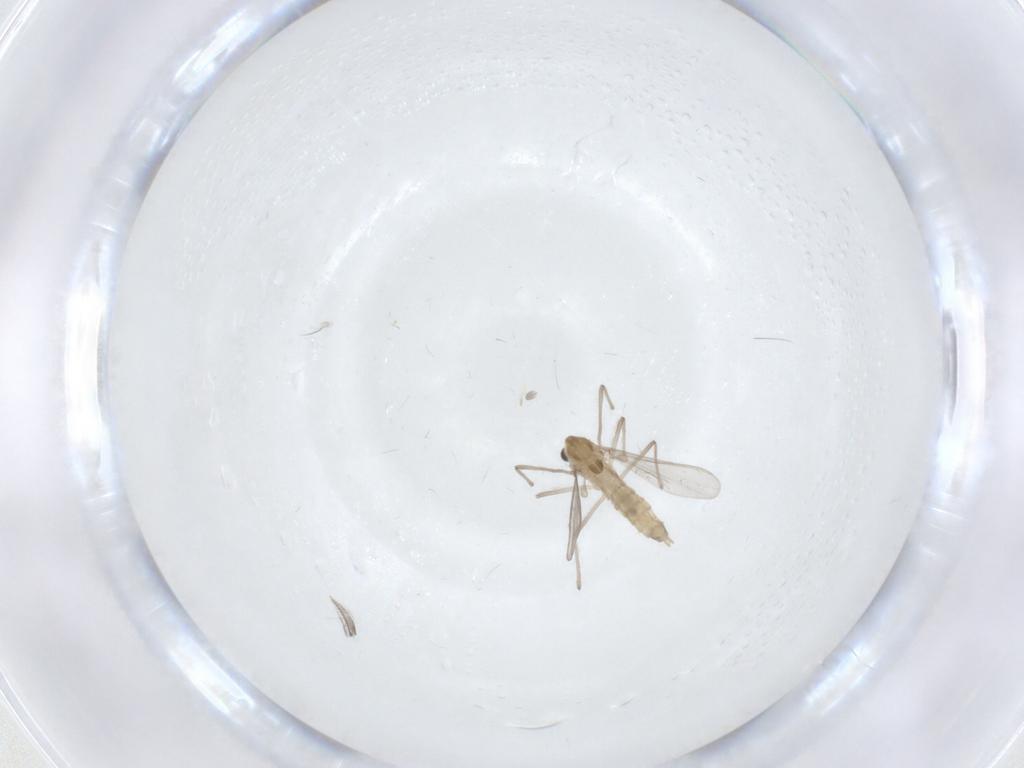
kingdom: Animalia
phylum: Arthropoda
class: Insecta
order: Diptera
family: Chironomidae
